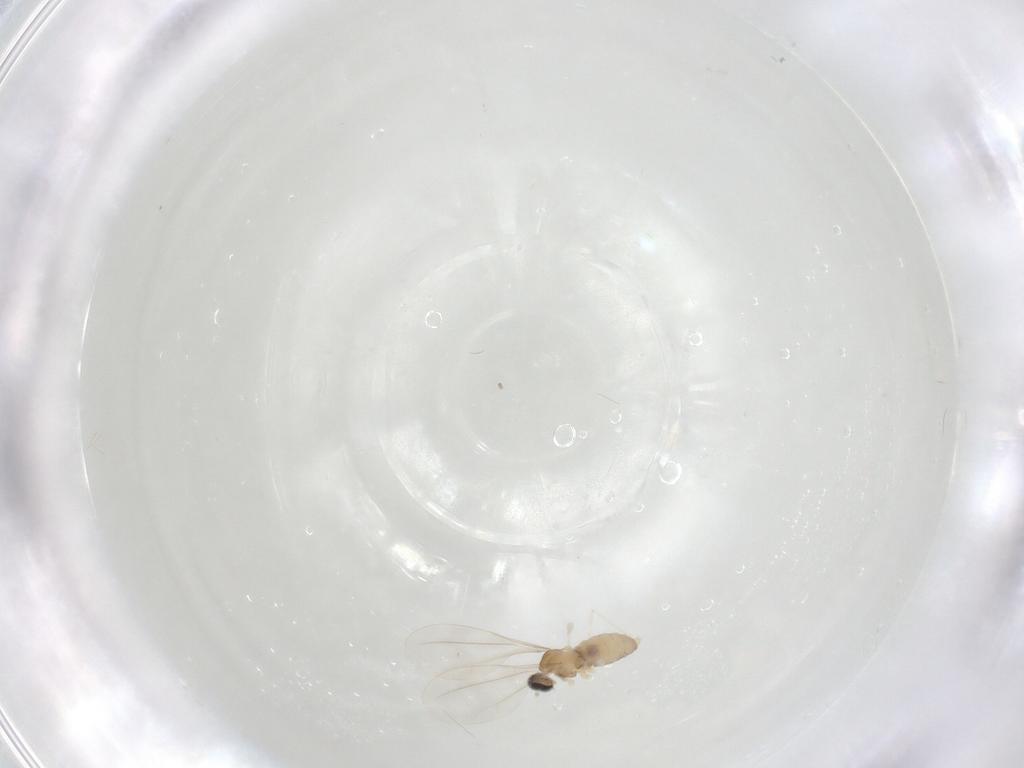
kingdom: Animalia
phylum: Arthropoda
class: Insecta
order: Diptera
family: Cecidomyiidae
